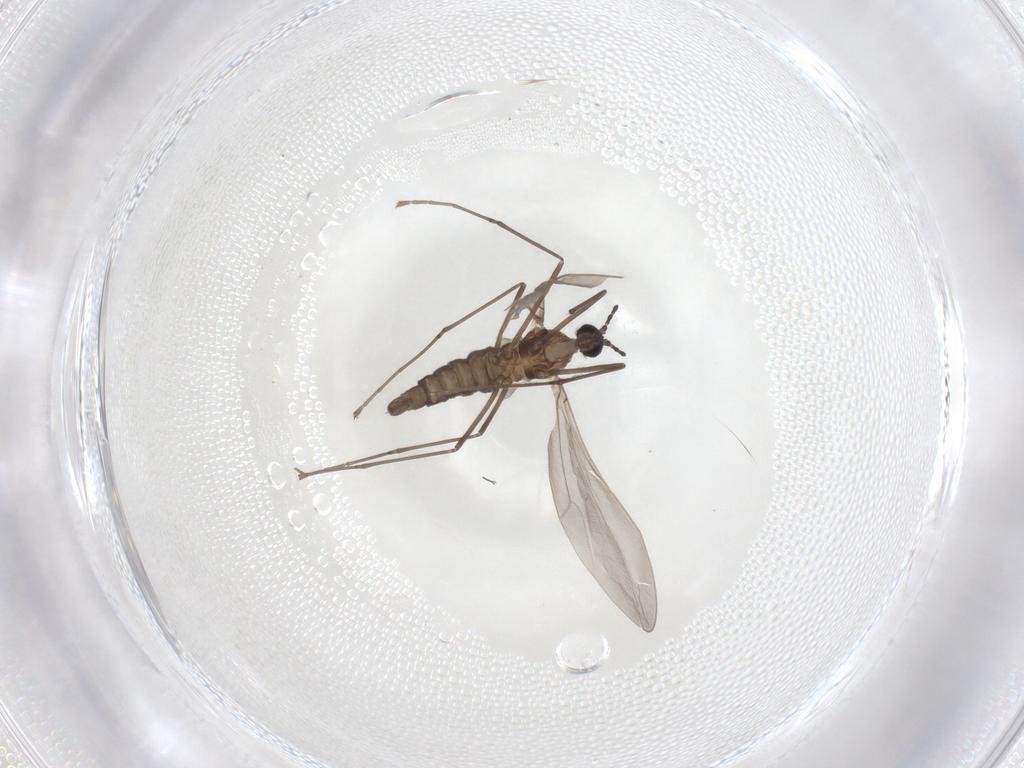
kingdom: Animalia
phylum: Arthropoda
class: Insecta
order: Diptera
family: Cecidomyiidae
